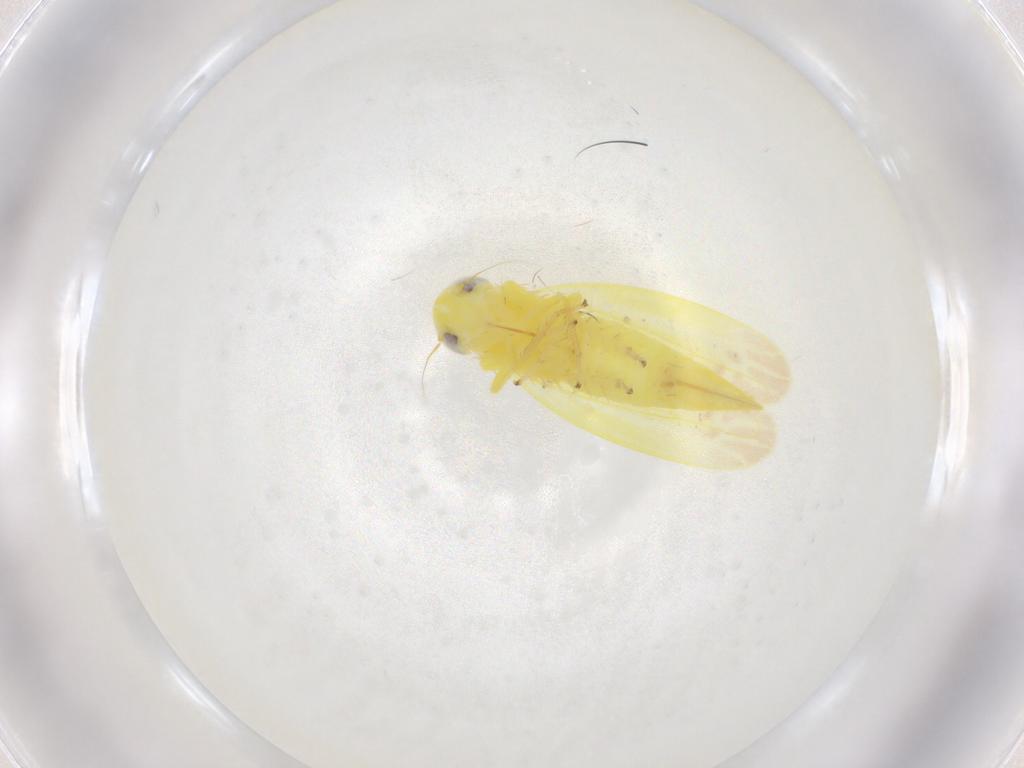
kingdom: Animalia
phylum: Arthropoda
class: Insecta
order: Hemiptera
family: Cicadellidae
